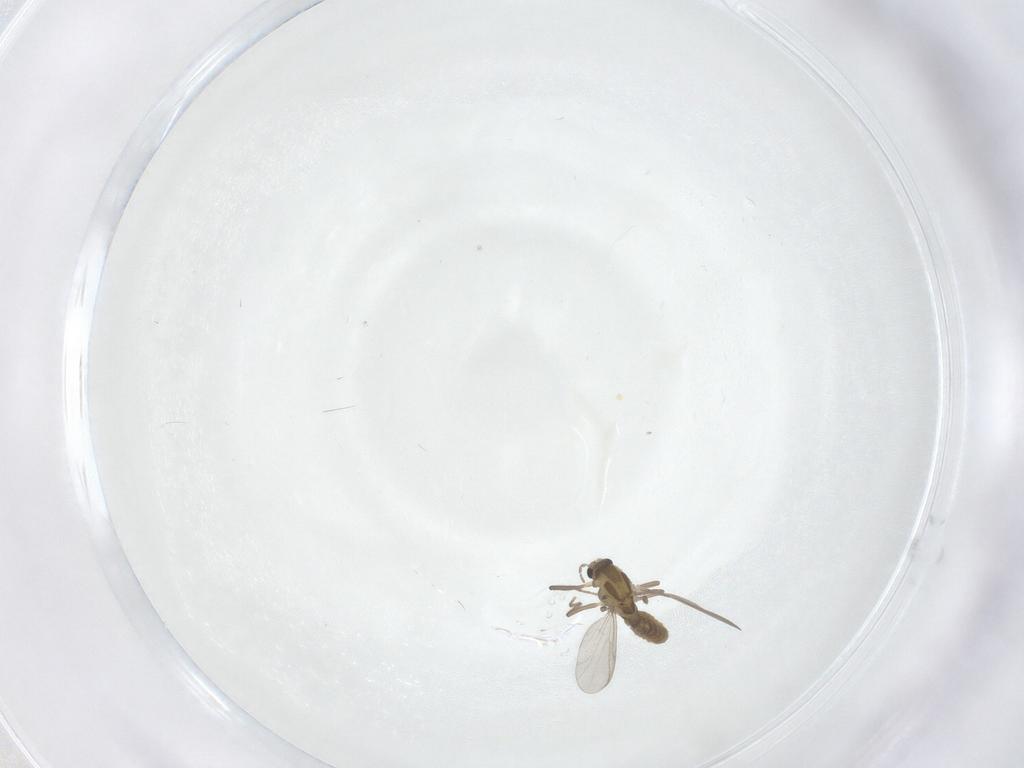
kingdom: Animalia
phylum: Arthropoda
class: Insecta
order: Diptera
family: Chironomidae
